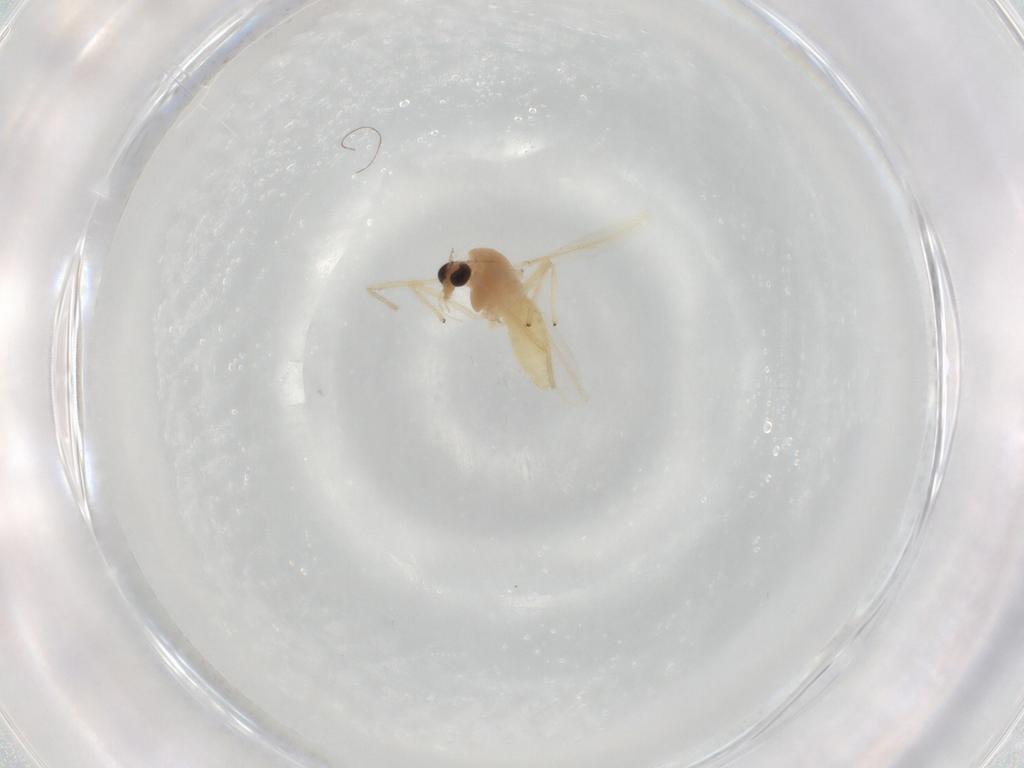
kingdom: Animalia
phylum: Arthropoda
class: Insecta
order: Diptera
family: Chironomidae
